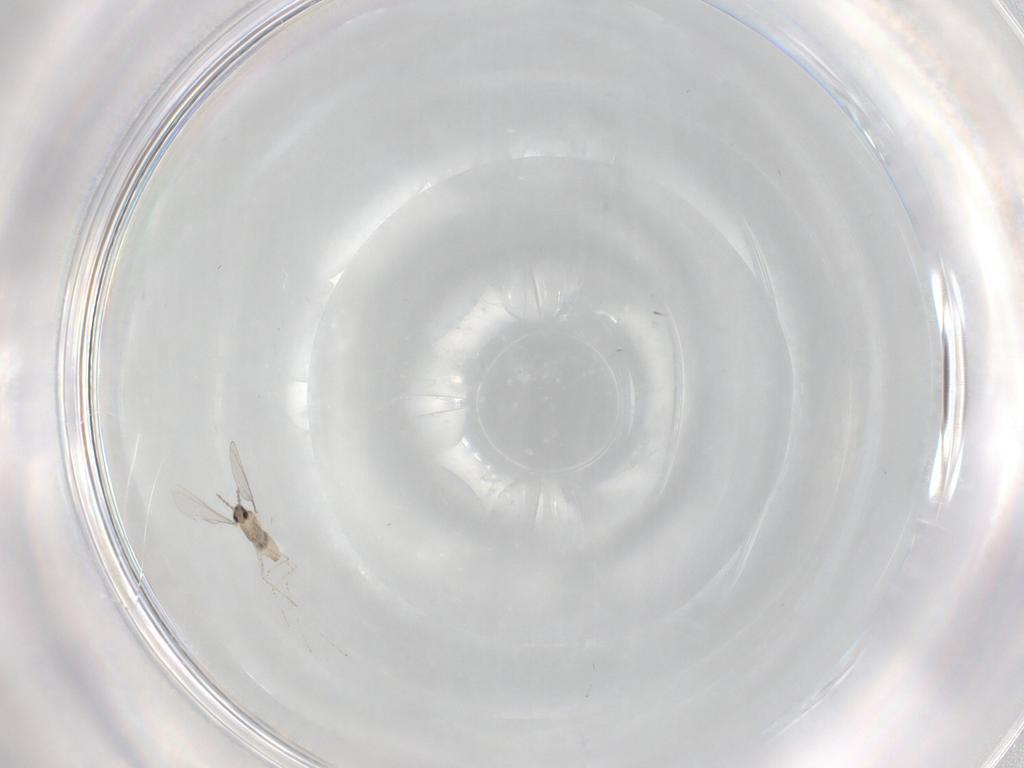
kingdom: Animalia
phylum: Arthropoda
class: Insecta
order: Diptera
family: Cecidomyiidae
